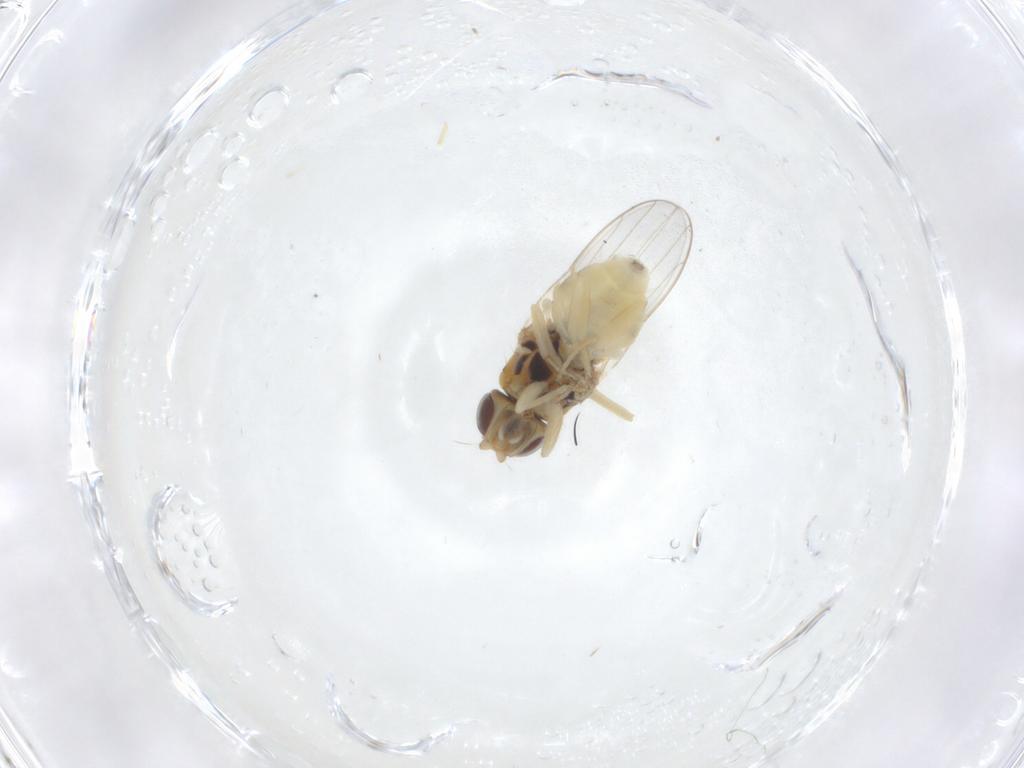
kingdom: Animalia
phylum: Arthropoda
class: Insecta
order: Diptera
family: Chloropidae
